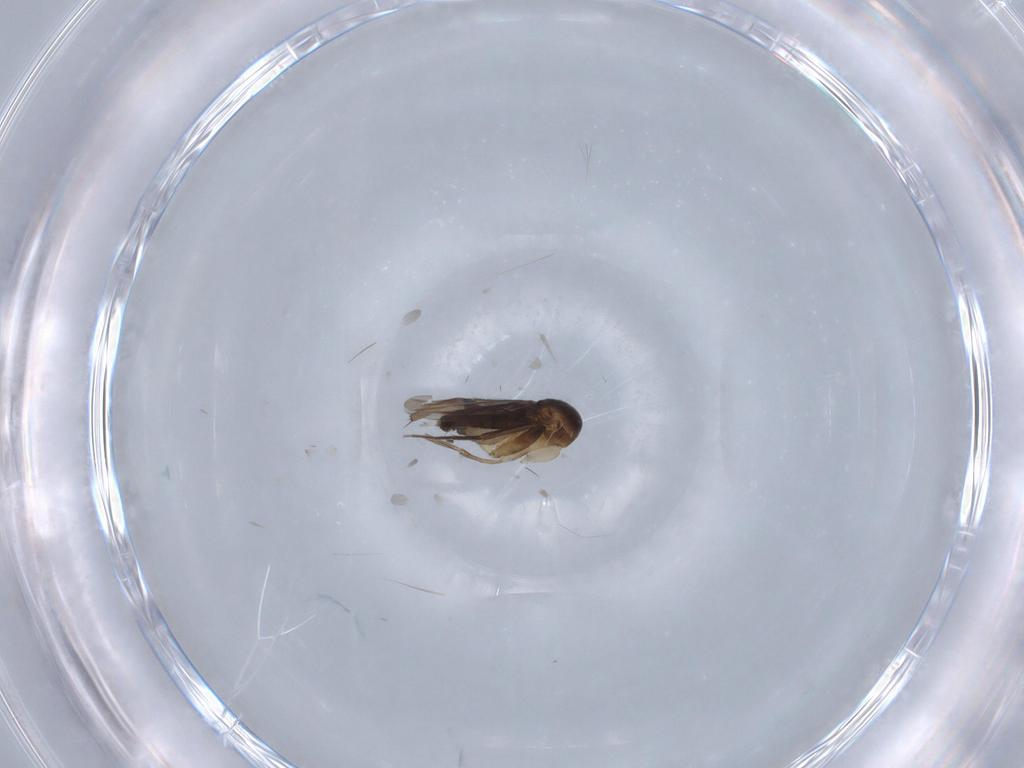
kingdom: Animalia
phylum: Arthropoda
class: Insecta
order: Diptera
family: Phoridae
